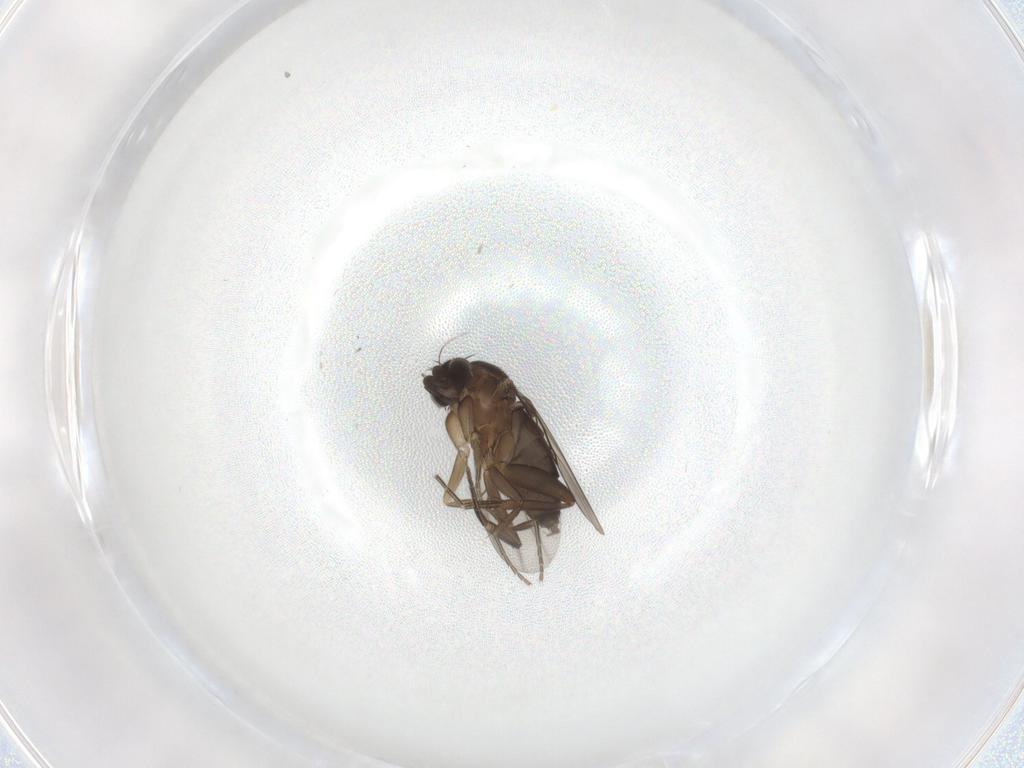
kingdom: Animalia
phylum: Arthropoda
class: Insecta
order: Diptera
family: Phoridae
